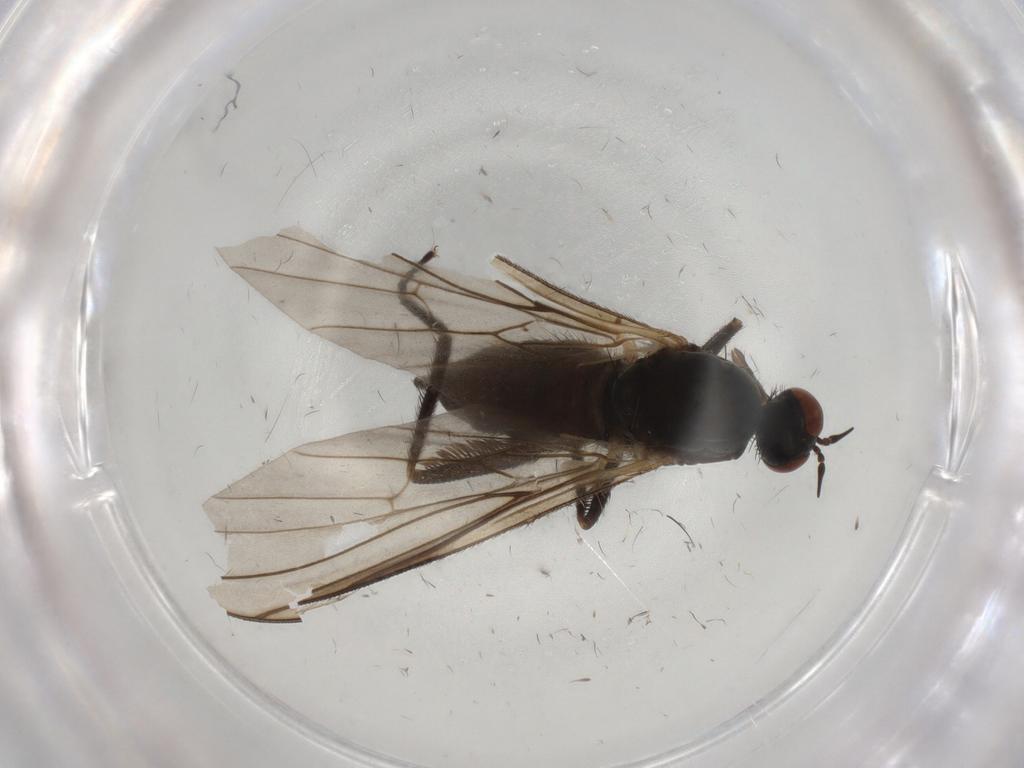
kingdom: Animalia
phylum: Arthropoda
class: Insecta
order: Diptera
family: Empididae
